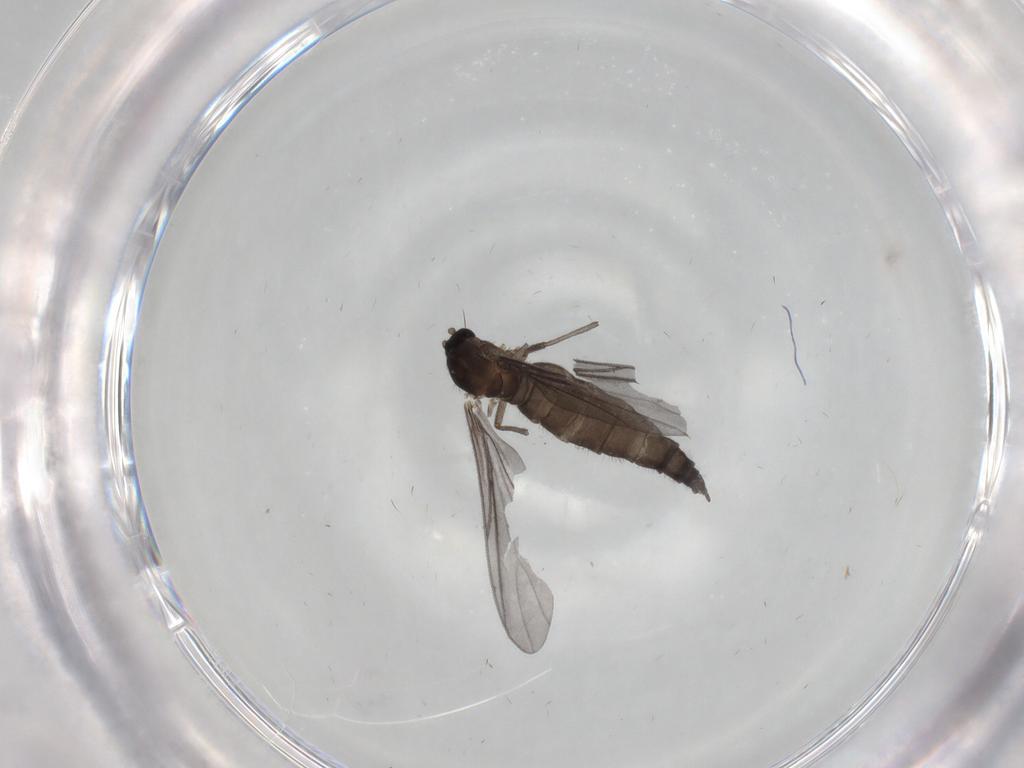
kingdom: Animalia
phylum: Arthropoda
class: Insecta
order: Diptera
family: Sciaridae
